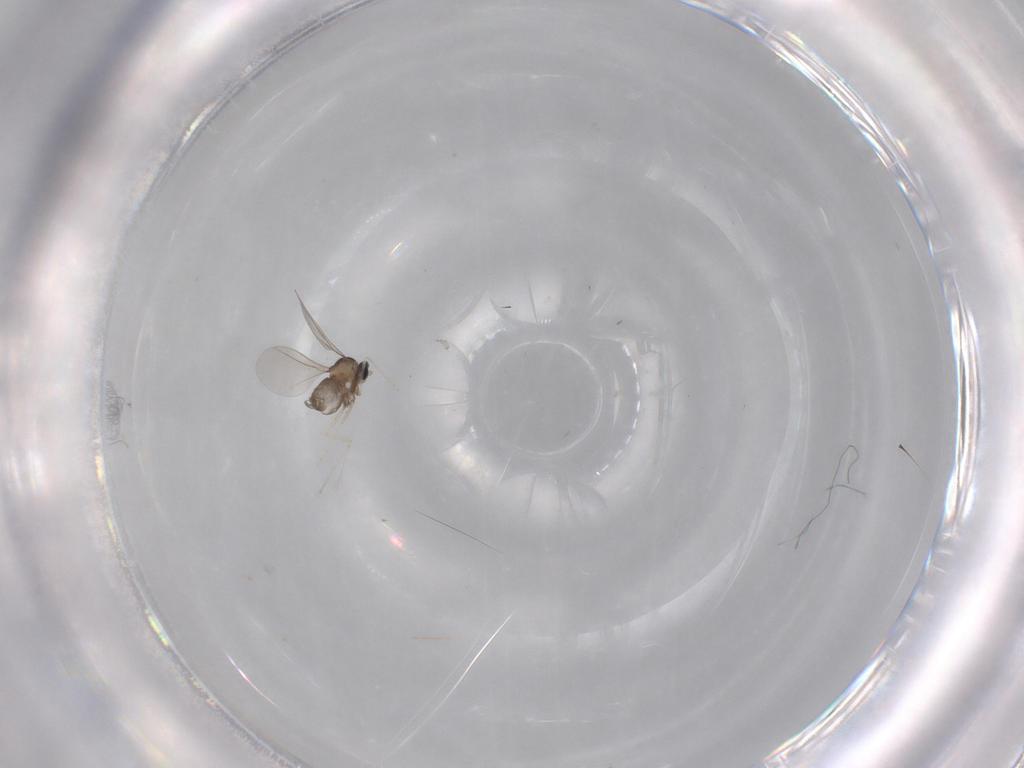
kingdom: Animalia
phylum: Arthropoda
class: Insecta
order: Diptera
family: Cecidomyiidae
